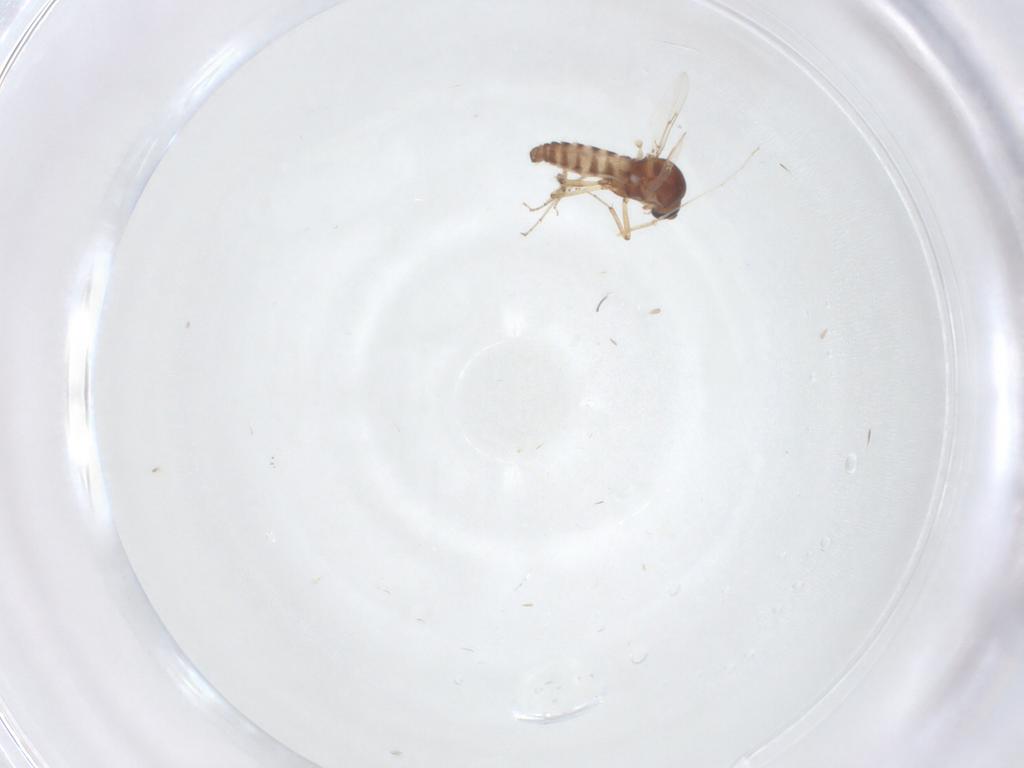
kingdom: Animalia
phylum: Arthropoda
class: Insecta
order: Diptera
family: Ceratopogonidae
